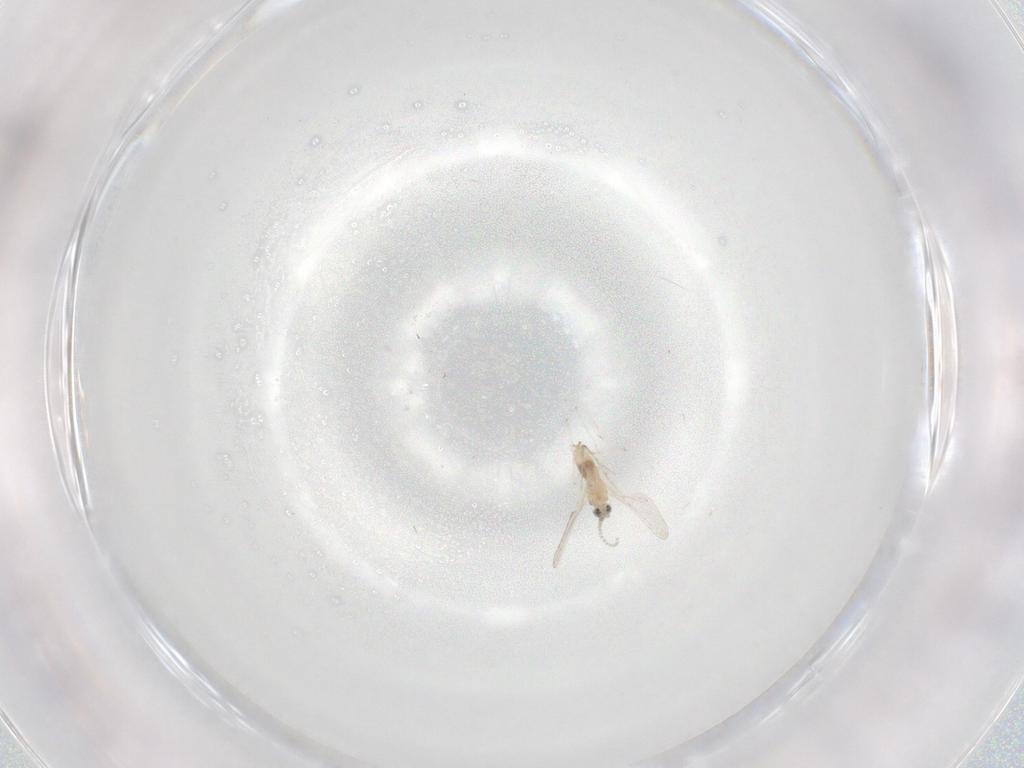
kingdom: Animalia
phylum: Arthropoda
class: Insecta
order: Diptera
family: Cecidomyiidae
